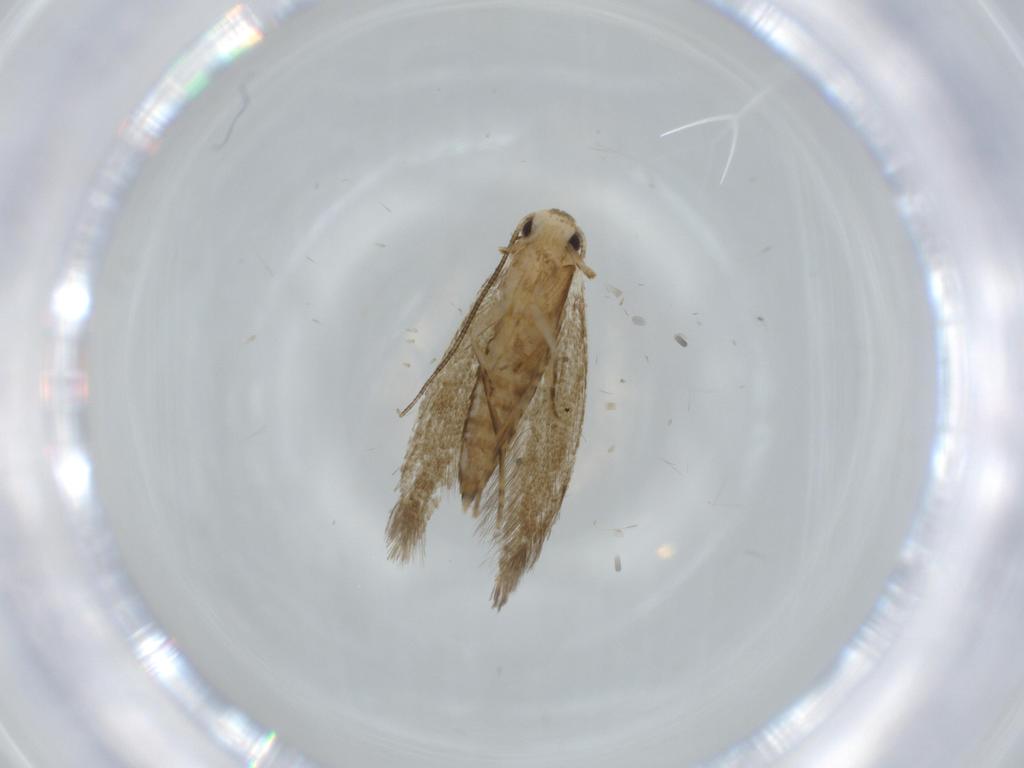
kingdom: Animalia
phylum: Arthropoda
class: Insecta
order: Lepidoptera
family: Tineidae
